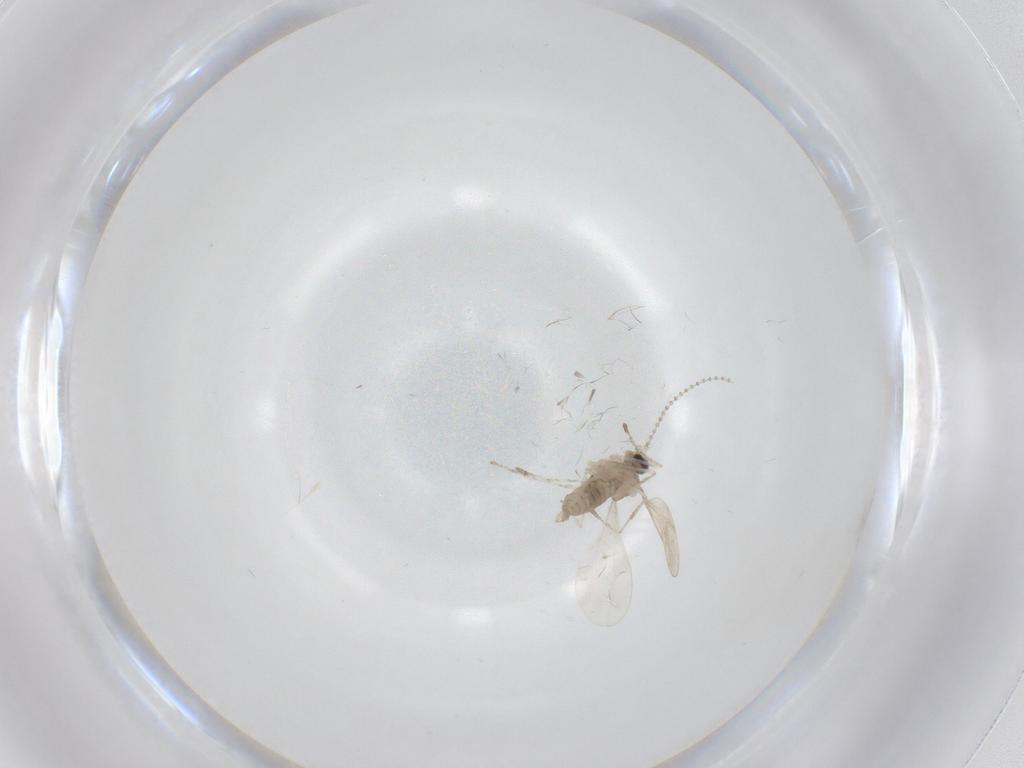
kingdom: Animalia
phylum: Arthropoda
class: Insecta
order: Diptera
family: Cecidomyiidae
